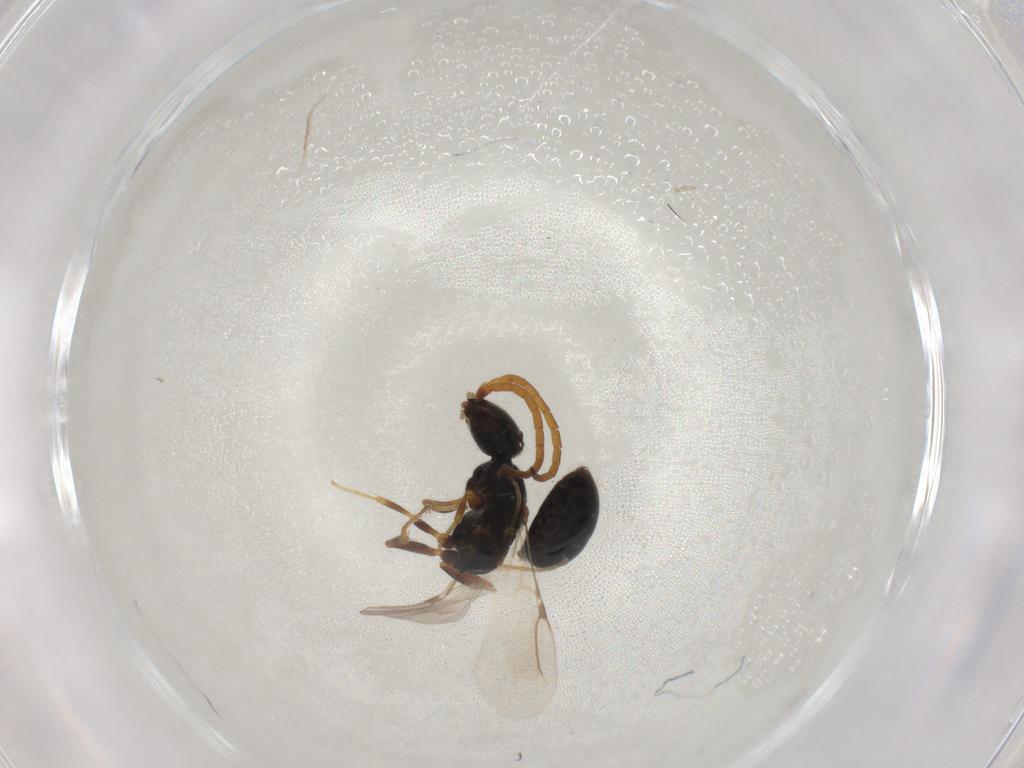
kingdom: Animalia
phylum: Arthropoda
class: Insecta
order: Hymenoptera
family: Bethylidae
